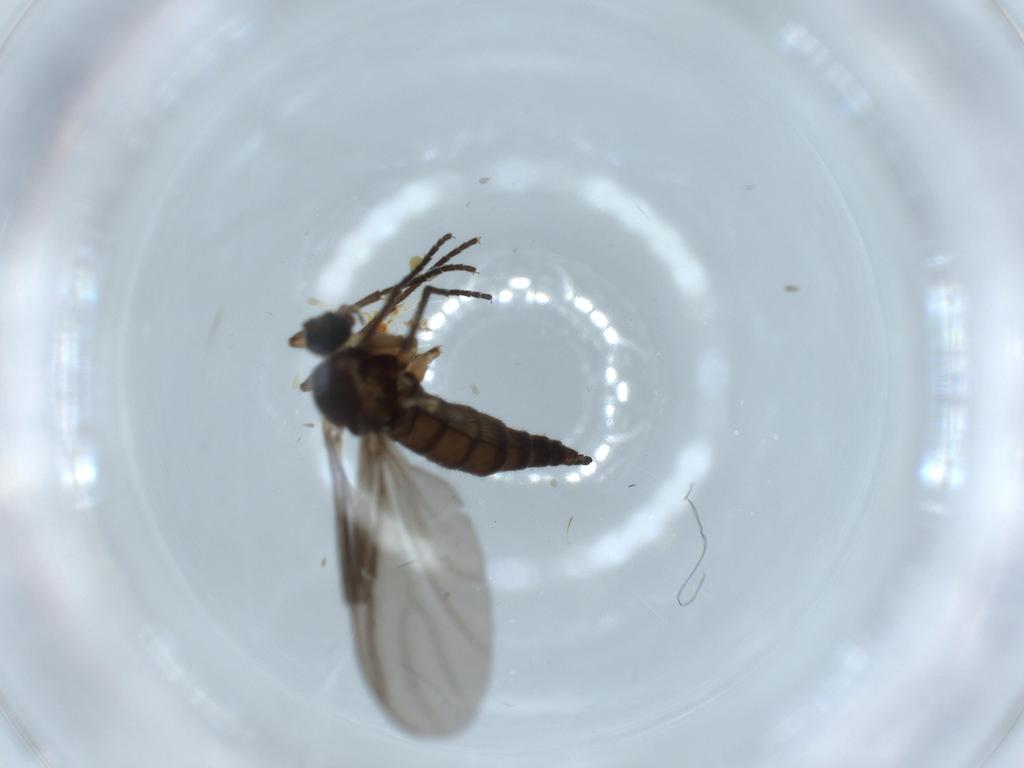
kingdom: Animalia
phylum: Arthropoda
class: Insecta
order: Diptera
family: Sciaridae
